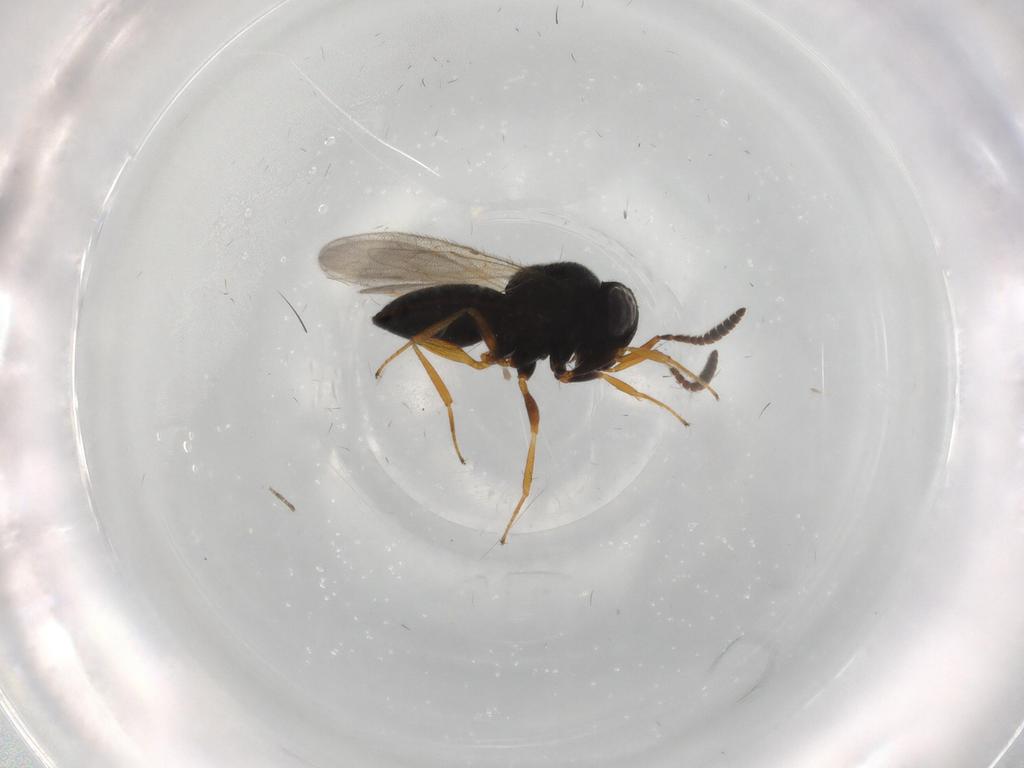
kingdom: Animalia
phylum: Arthropoda
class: Insecta
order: Hymenoptera
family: Scelionidae
